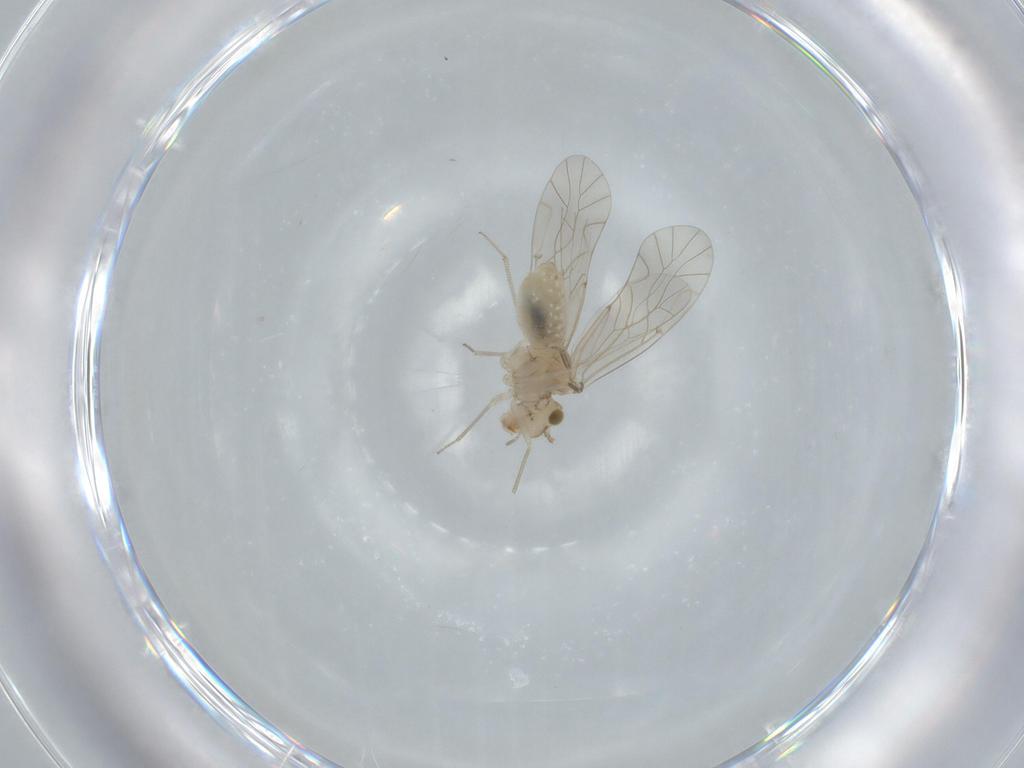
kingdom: Animalia
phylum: Arthropoda
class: Insecta
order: Psocodea
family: Lachesillidae
